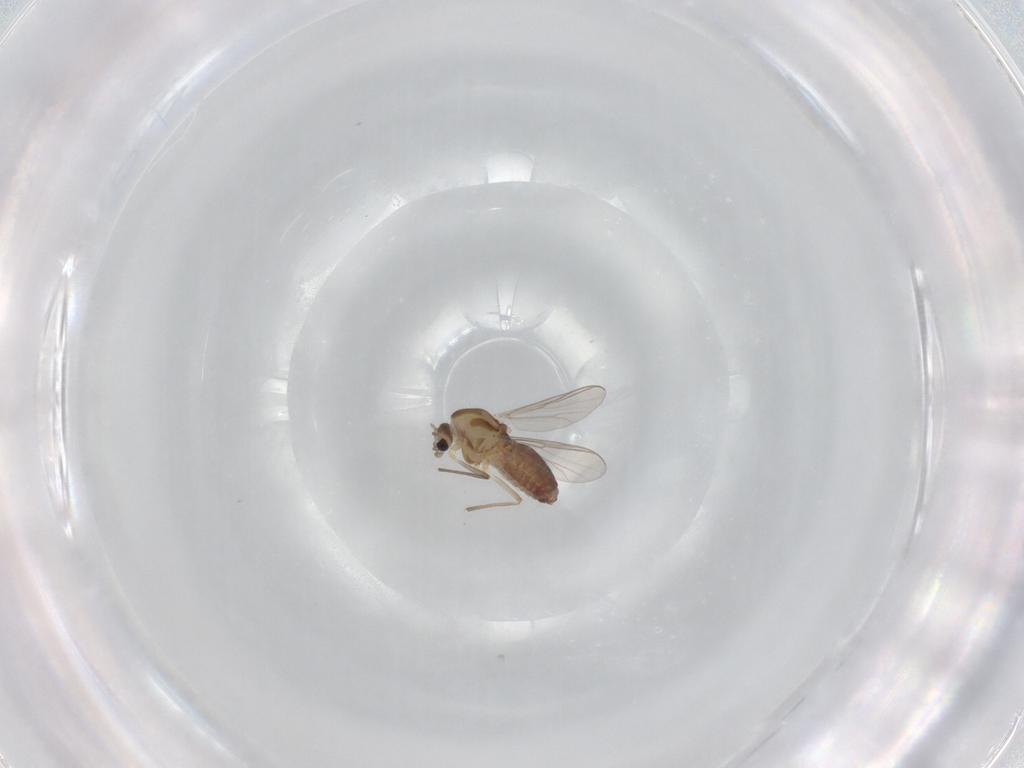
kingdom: Animalia
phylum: Arthropoda
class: Insecta
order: Diptera
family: Chironomidae
